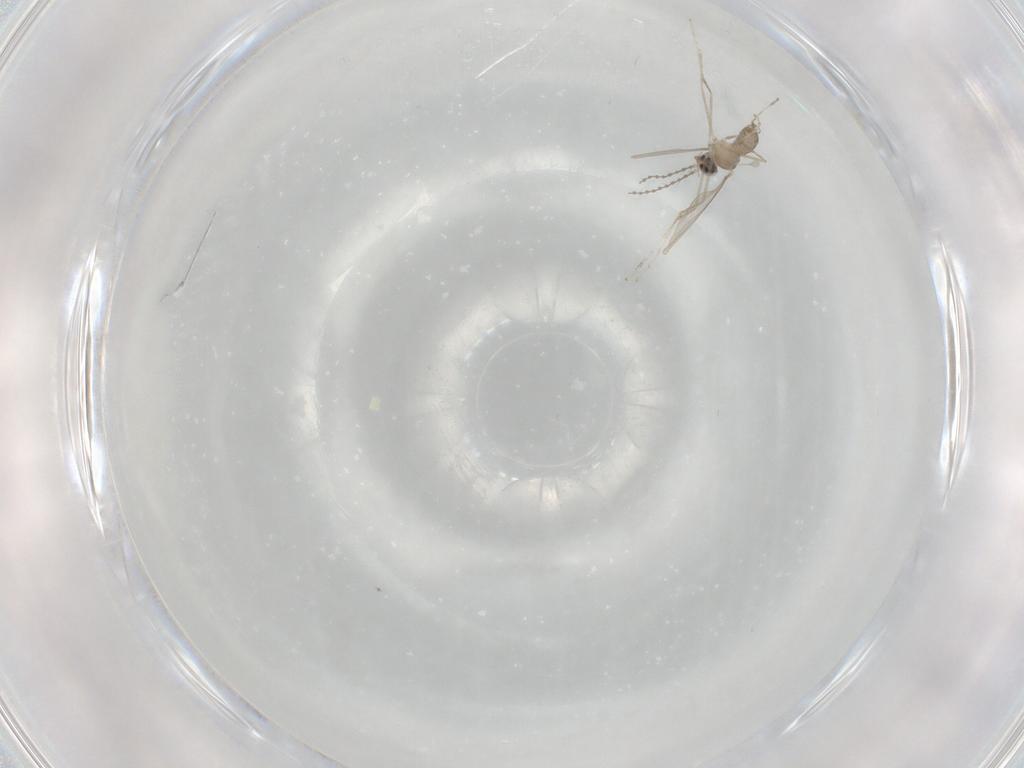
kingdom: Animalia
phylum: Arthropoda
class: Insecta
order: Diptera
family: Cecidomyiidae
